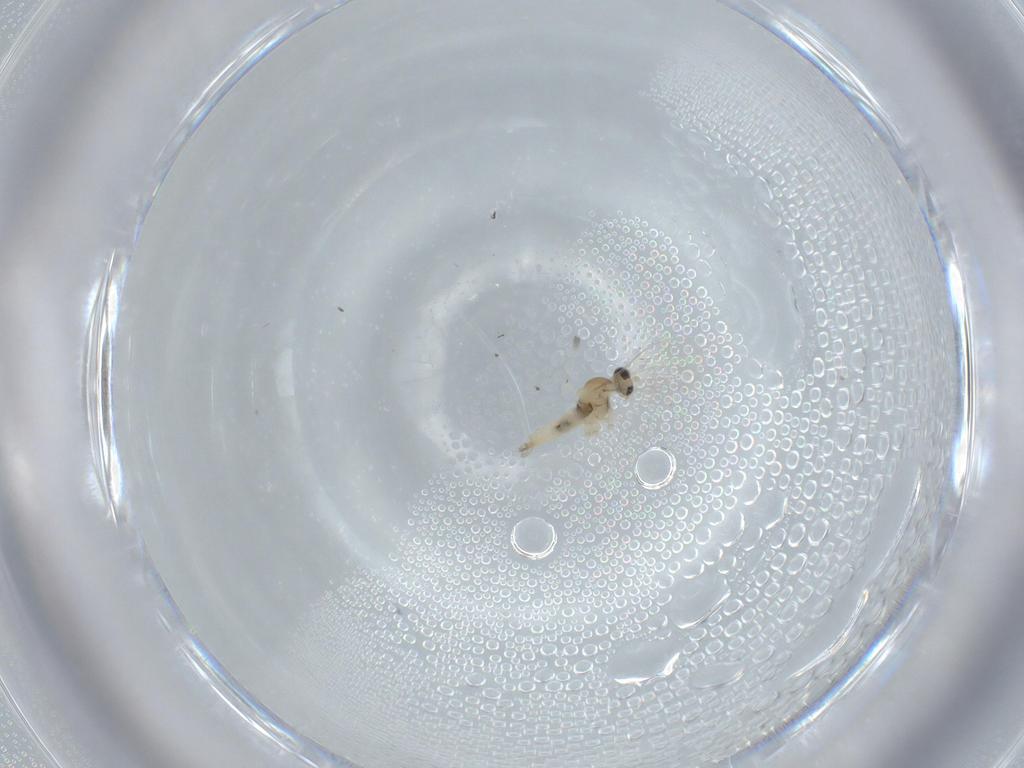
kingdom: Animalia
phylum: Arthropoda
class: Insecta
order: Diptera
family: Cecidomyiidae
